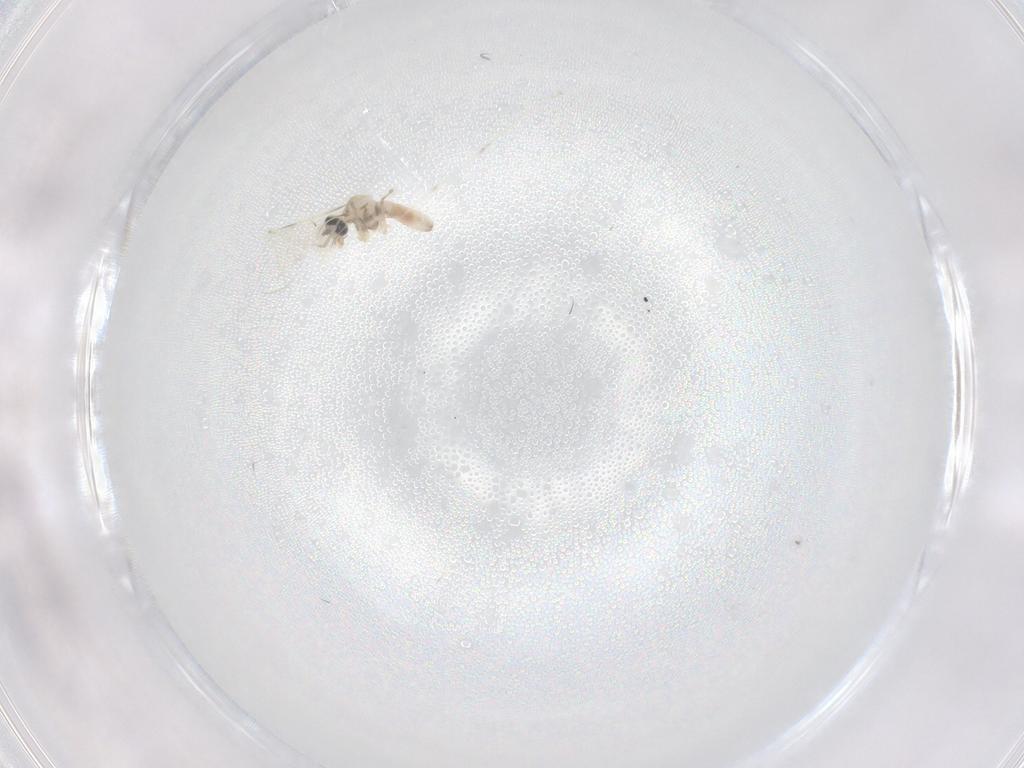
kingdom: Animalia
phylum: Arthropoda
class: Insecta
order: Diptera
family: Cecidomyiidae
